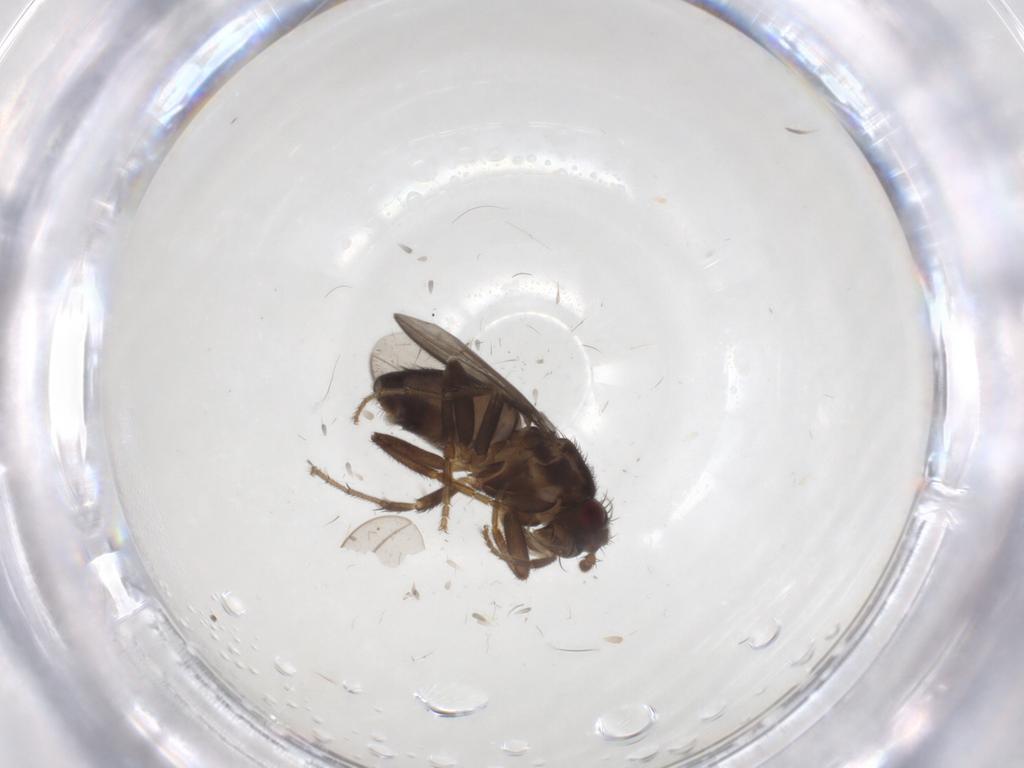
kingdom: Animalia
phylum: Arthropoda
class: Insecta
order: Diptera
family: Sphaeroceridae
